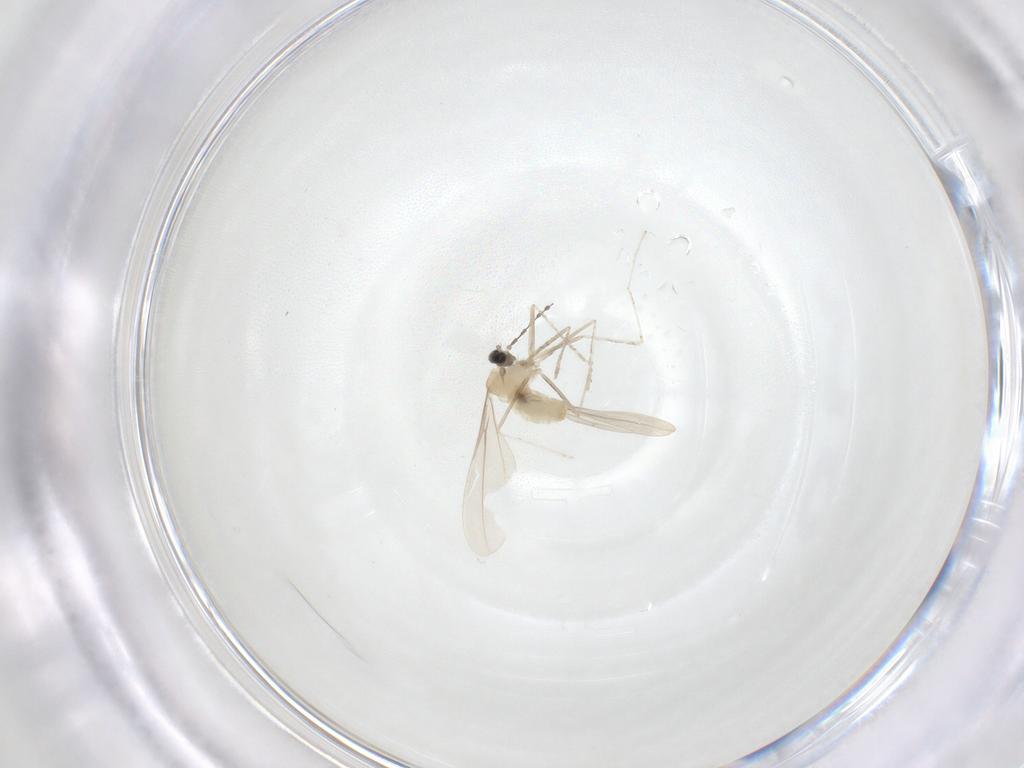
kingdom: Animalia
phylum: Arthropoda
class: Insecta
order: Diptera
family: Cecidomyiidae
